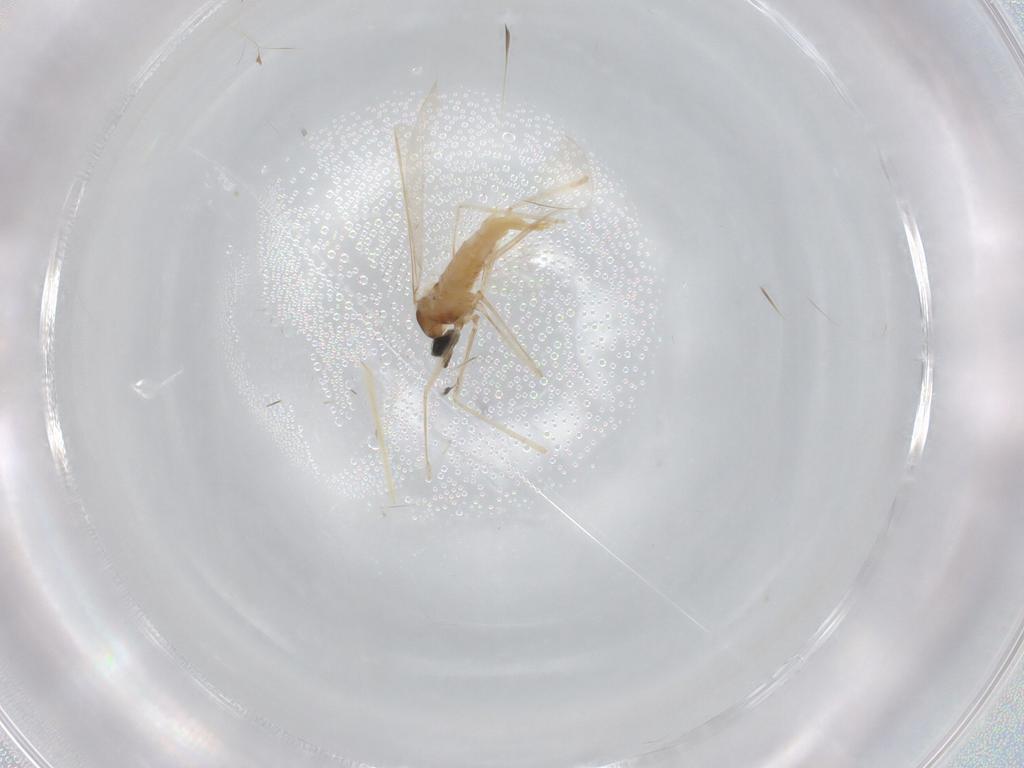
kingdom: Animalia
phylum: Arthropoda
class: Insecta
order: Diptera
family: Cecidomyiidae
